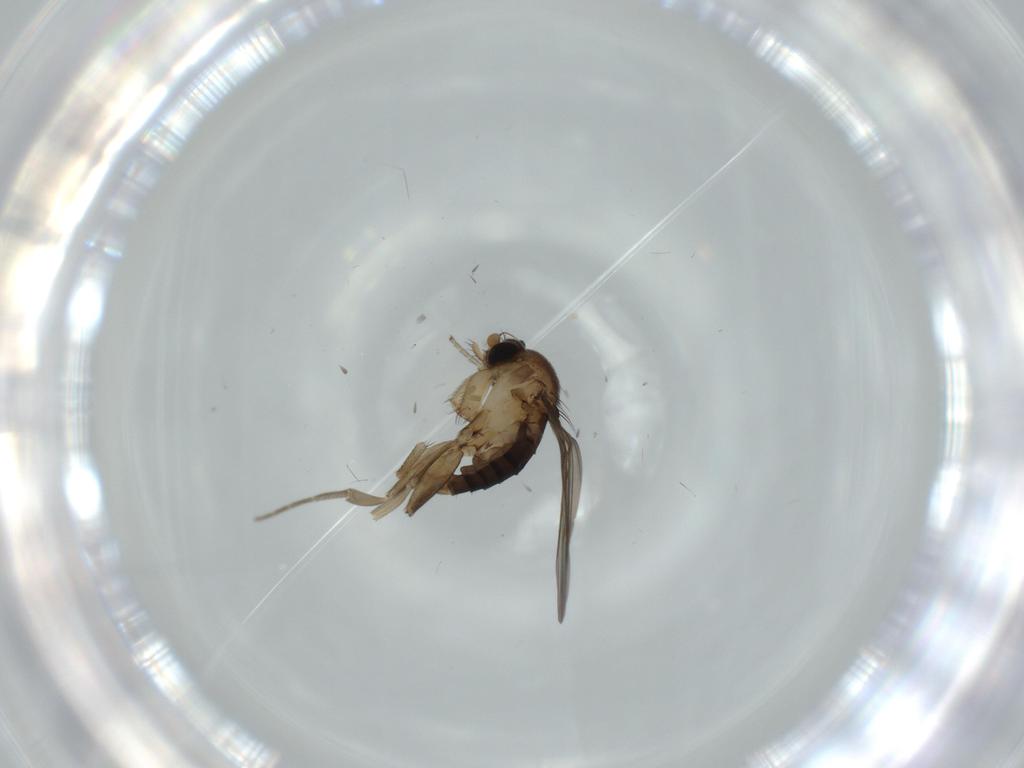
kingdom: Animalia
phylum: Arthropoda
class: Insecta
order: Diptera
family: Phoridae
